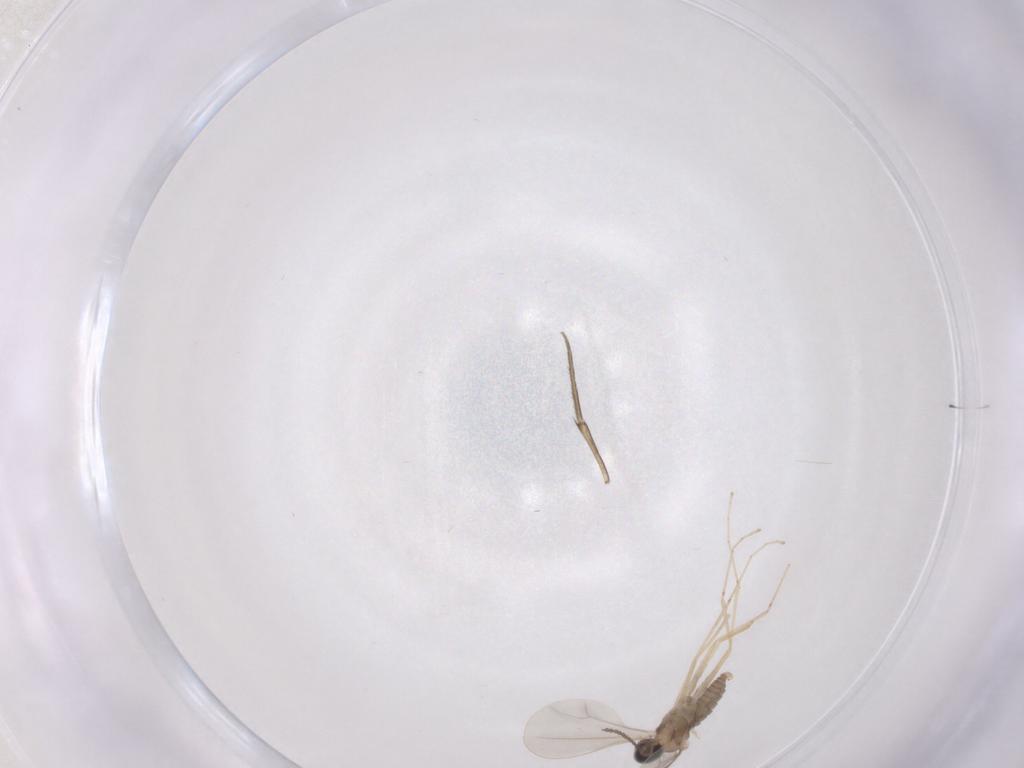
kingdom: Animalia
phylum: Arthropoda
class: Insecta
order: Diptera
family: Cecidomyiidae
